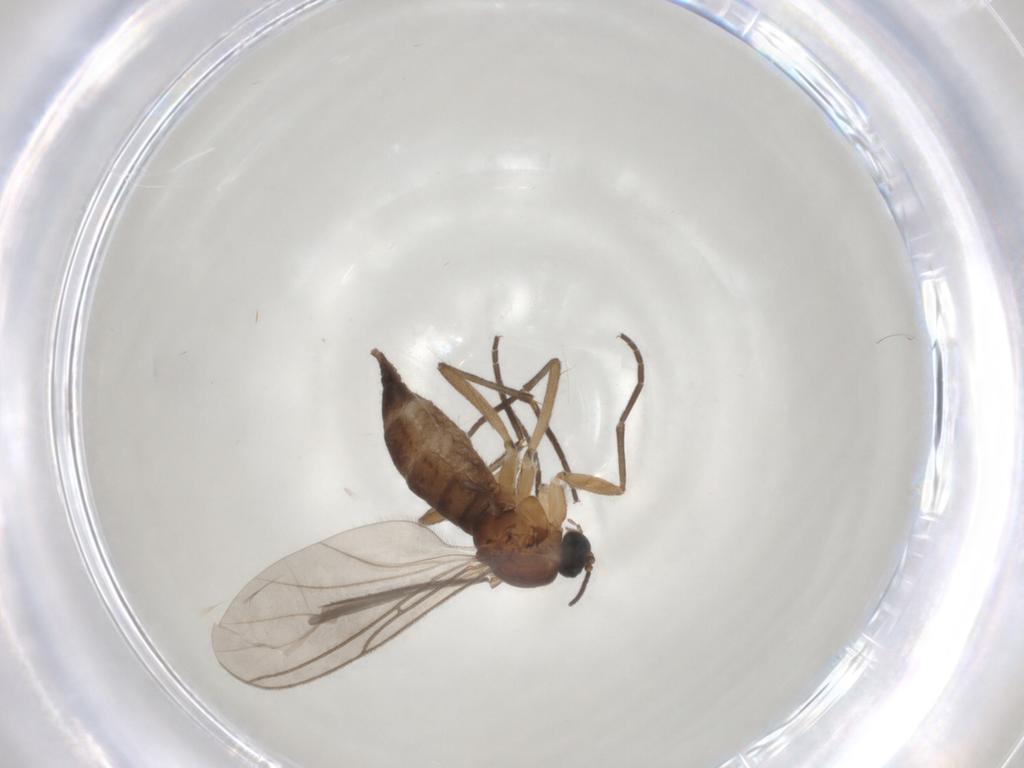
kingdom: Animalia
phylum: Arthropoda
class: Insecta
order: Diptera
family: Sciaridae
